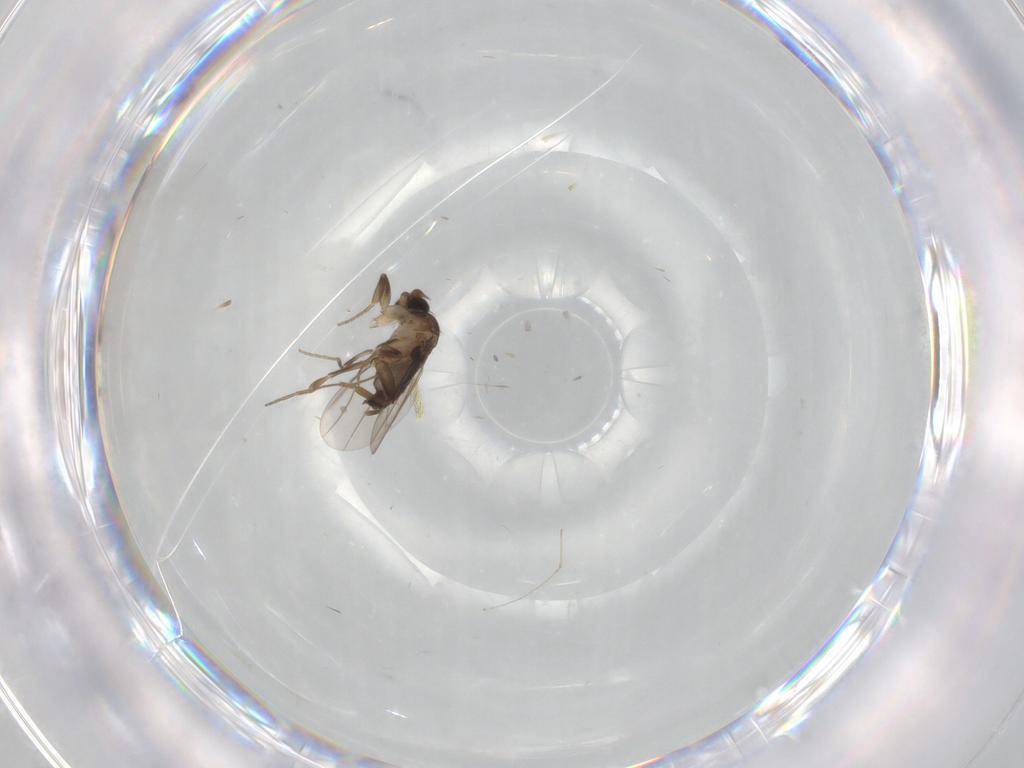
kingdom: Animalia
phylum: Arthropoda
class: Insecta
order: Diptera
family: Phoridae
